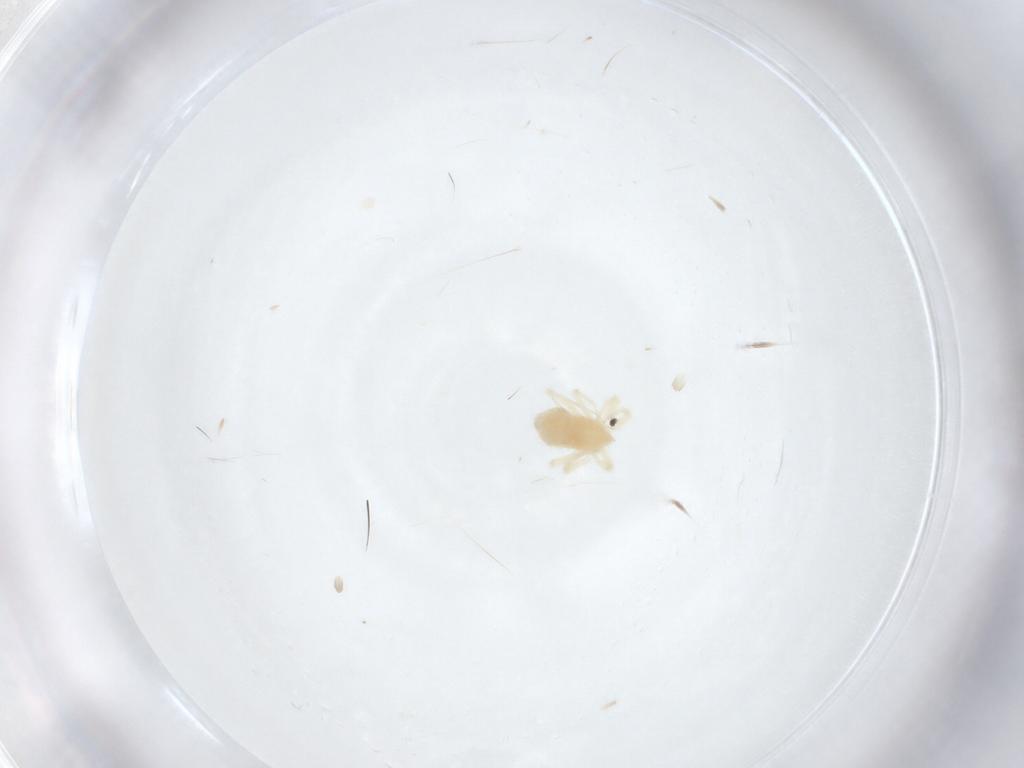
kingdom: Animalia
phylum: Arthropoda
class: Arachnida
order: Trombidiformes
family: Anystidae
